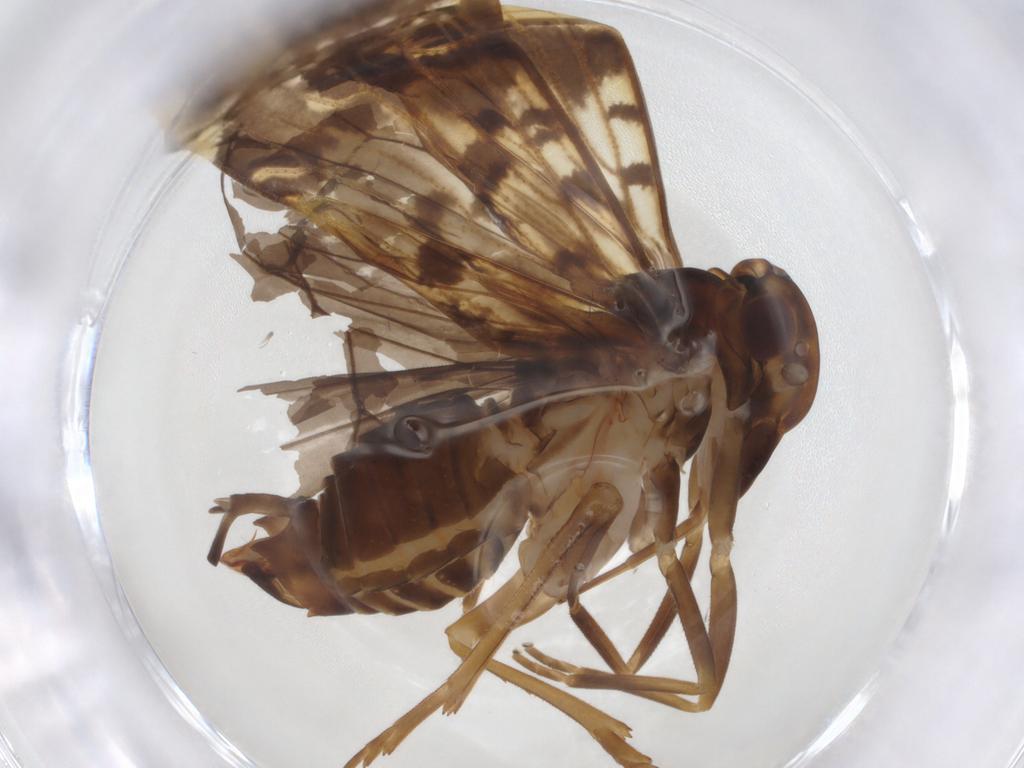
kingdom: Animalia
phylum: Arthropoda
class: Insecta
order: Hemiptera
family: Cixiidae
